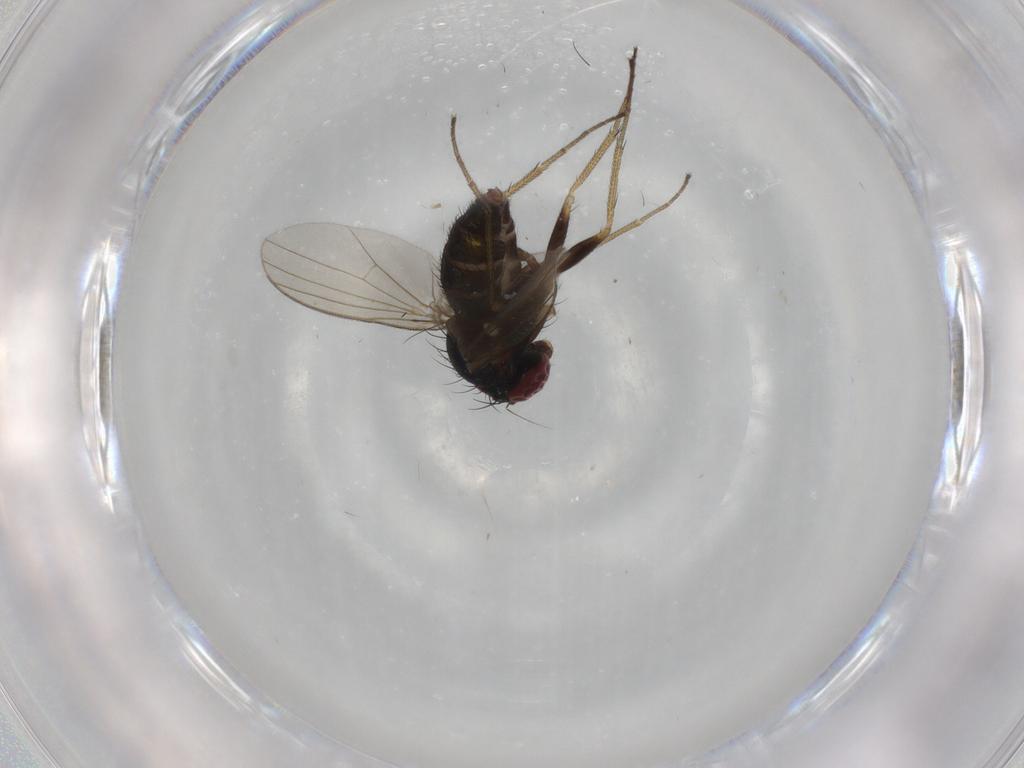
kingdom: Animalia
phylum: Arthropoda
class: Insecta
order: Diptera
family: Dolichopodidae
